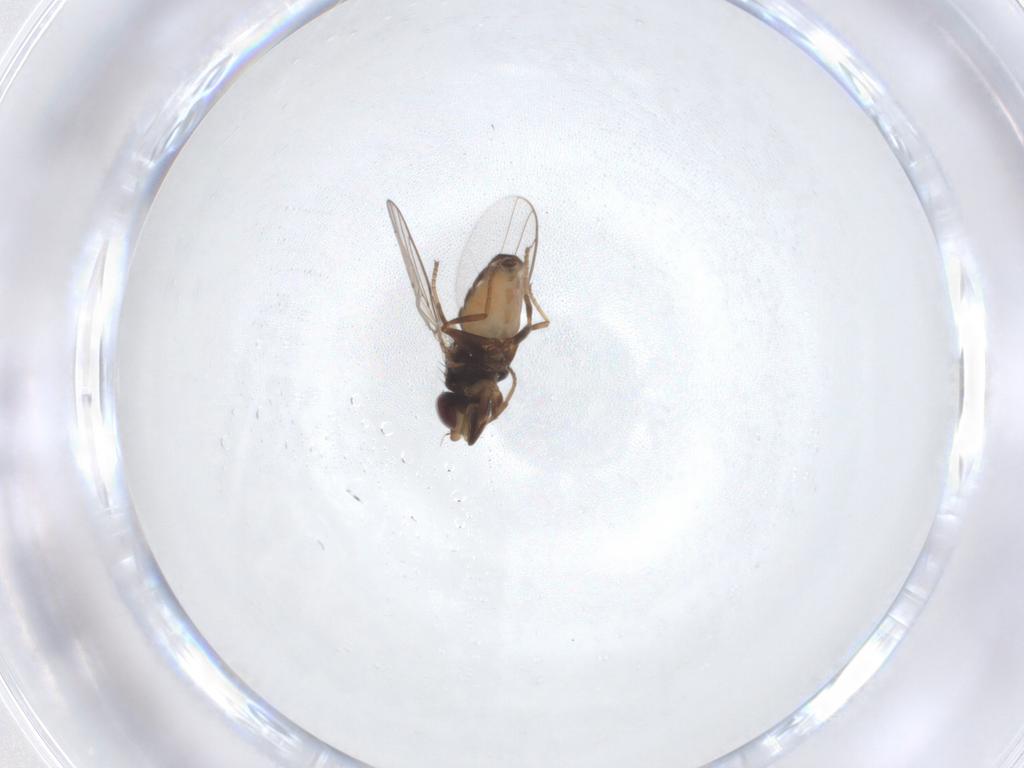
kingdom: Animalia
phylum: Arthropoda
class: Insecta
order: Diptera
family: Chloropidae
